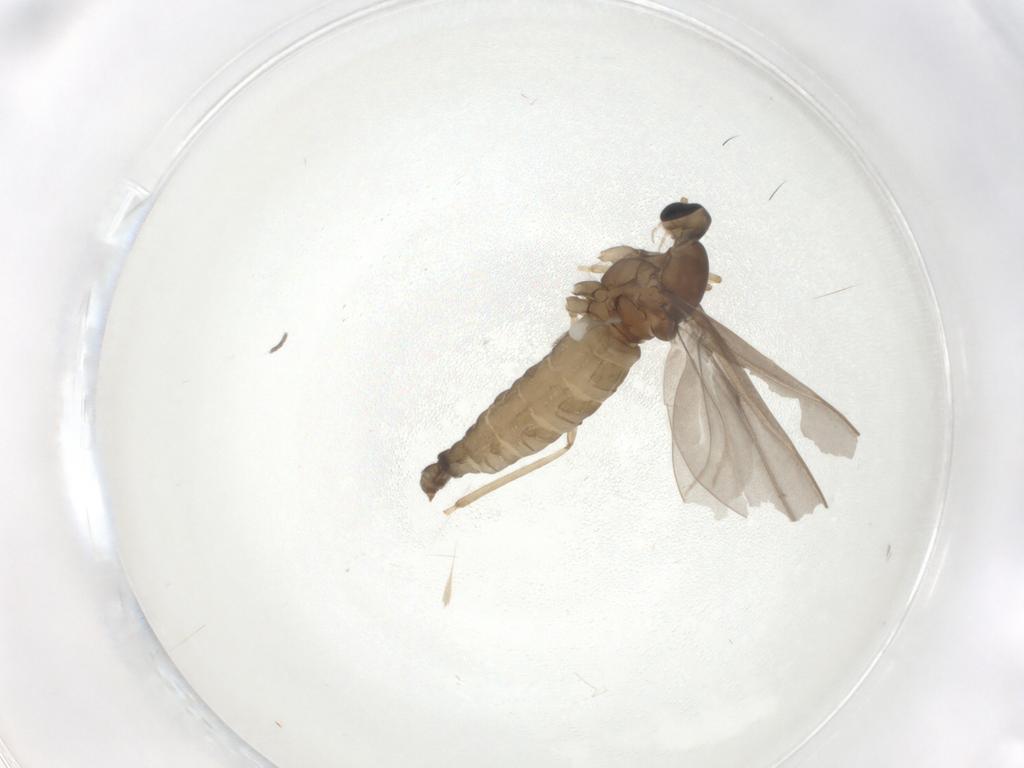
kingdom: Animalia
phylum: Arthropoda
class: Insecta
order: Diptera
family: Cecidomyiidae
